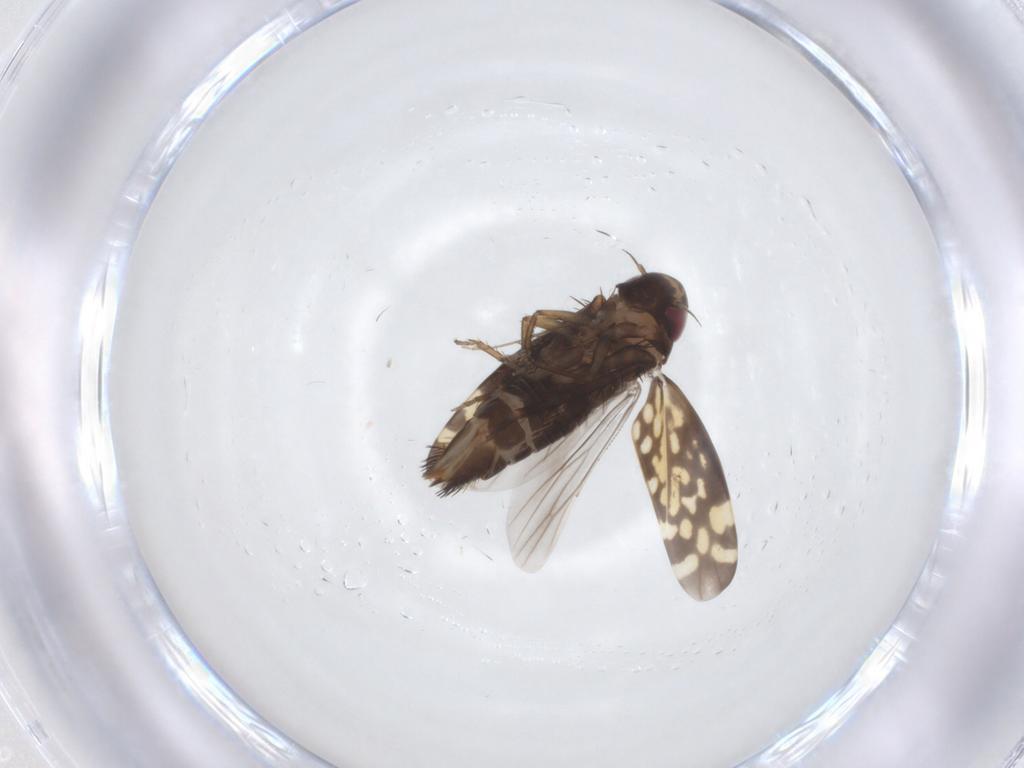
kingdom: Animalia
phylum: Arthropoda
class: Insecta
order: Hemiptera
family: Cicadellidae
